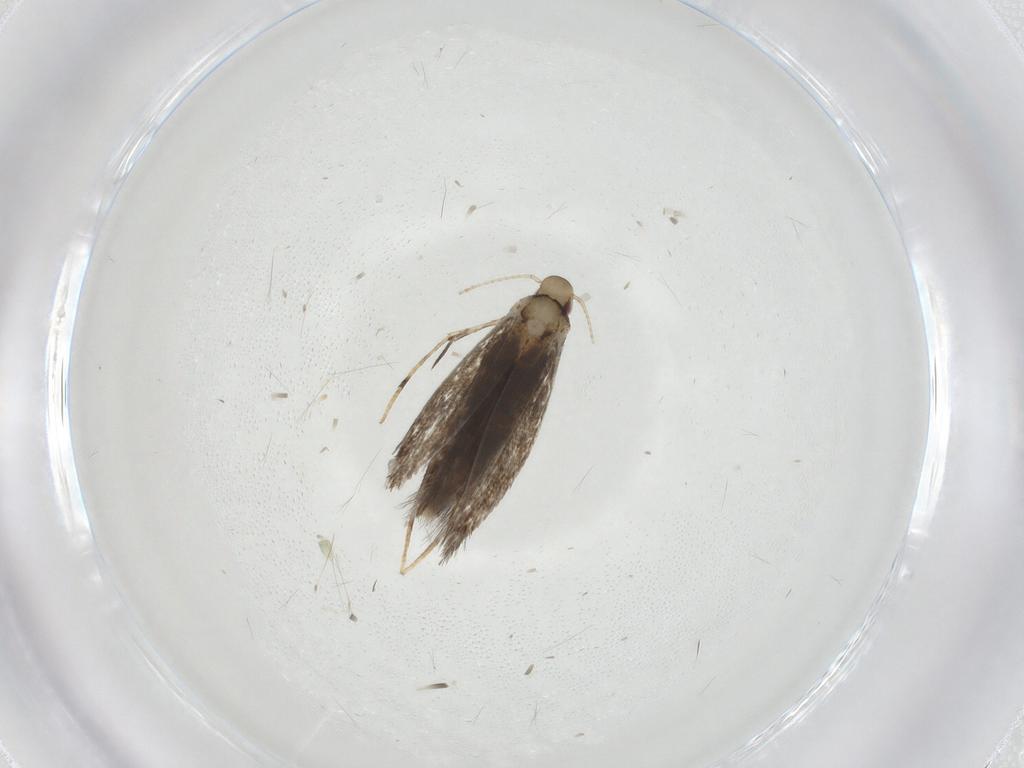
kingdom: Animalia
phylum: Arthropoda
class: Insecta
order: Lepidoptera
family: Gracillariidae
